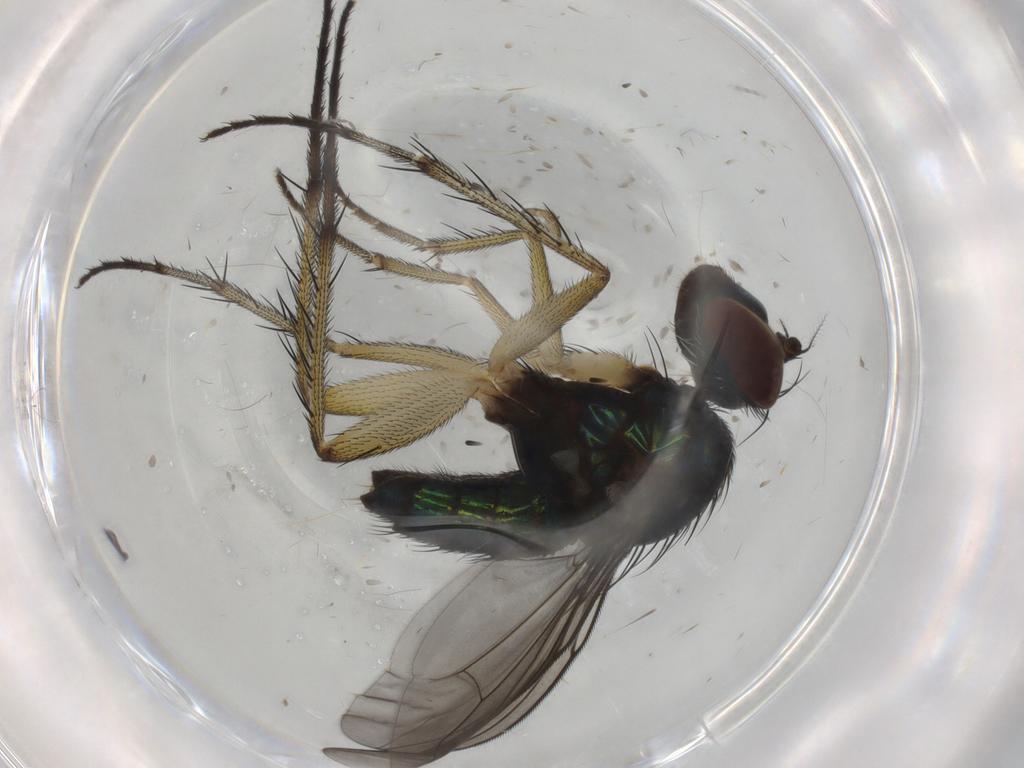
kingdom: Animalia
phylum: Arthropoda
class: Insecta
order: Diptera
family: Dolichopodidae
